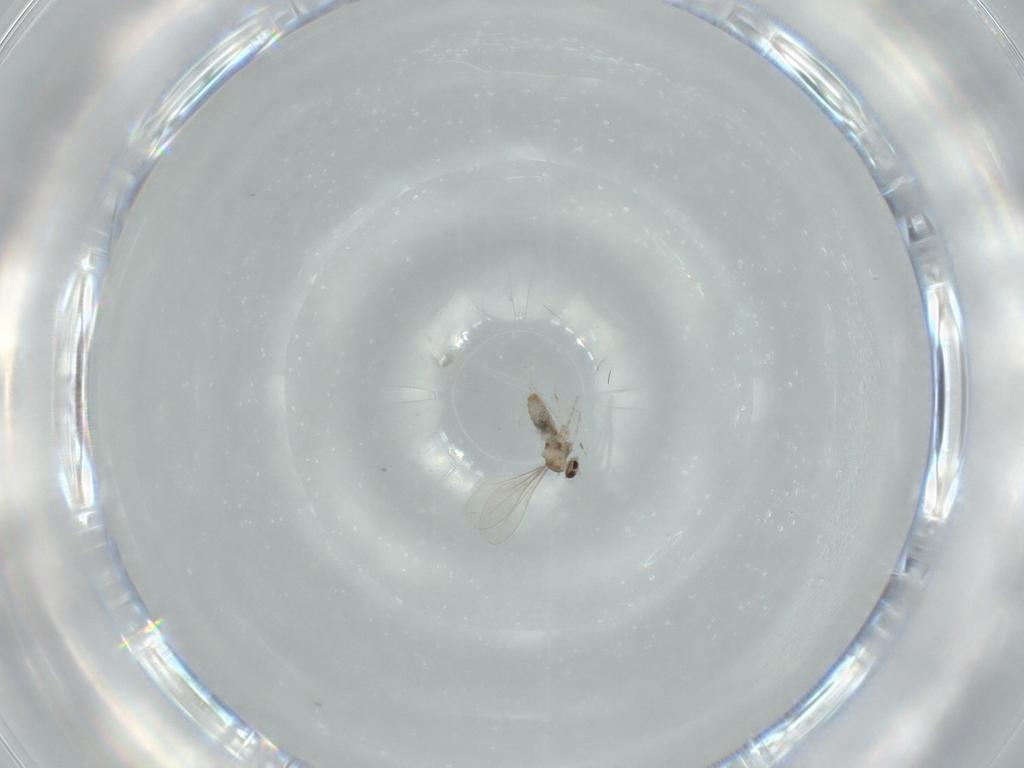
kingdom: Animalia
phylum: Arthropoda
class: Insecta
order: Diptera
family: Cecidomyiidae
